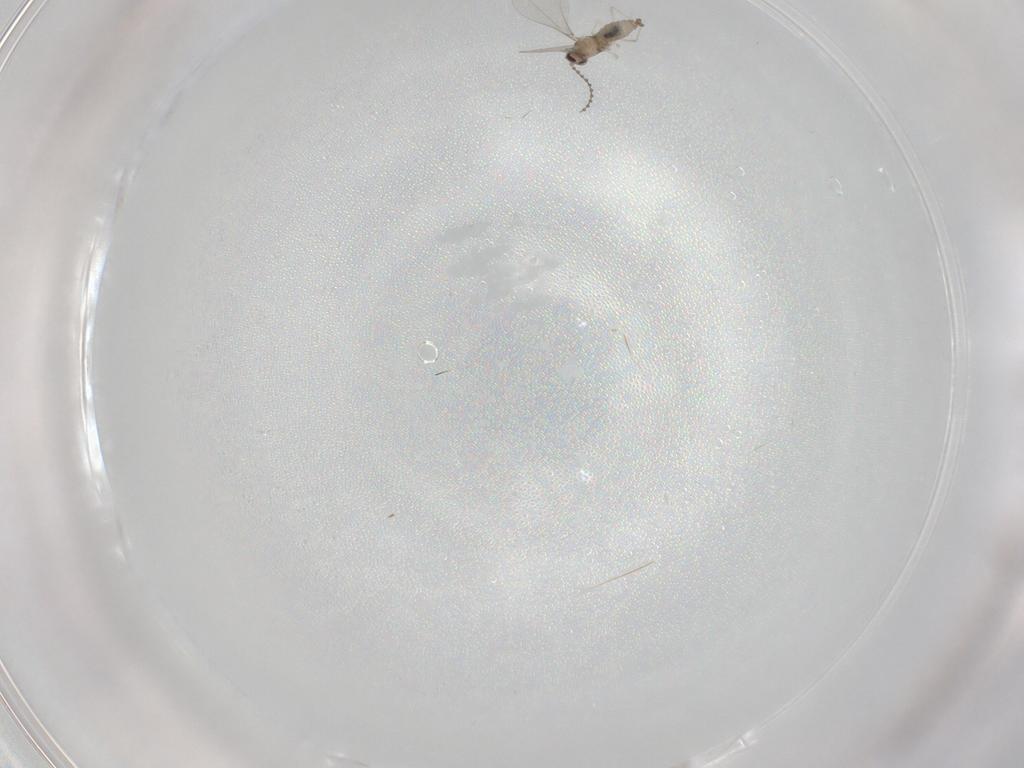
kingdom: Animalia
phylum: Arthropoda
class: Insecta
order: Diptera
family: Cecidomyiidae
